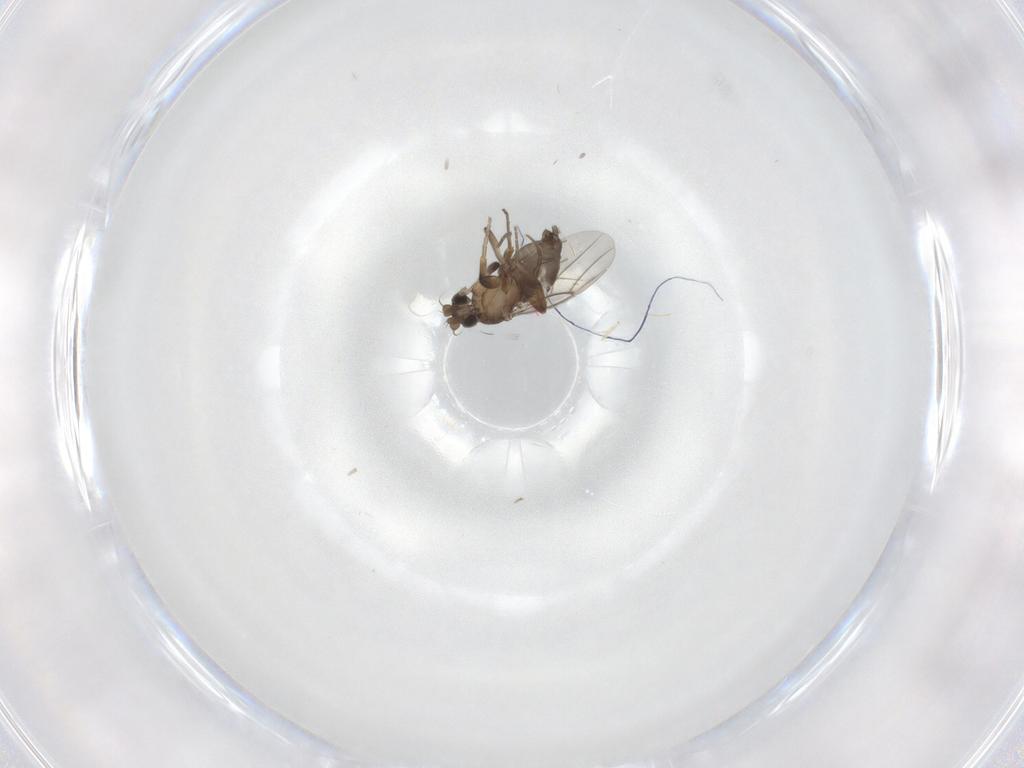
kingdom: Animalia
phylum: Arthropoda
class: Insecta
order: Diptera
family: Phoridae
